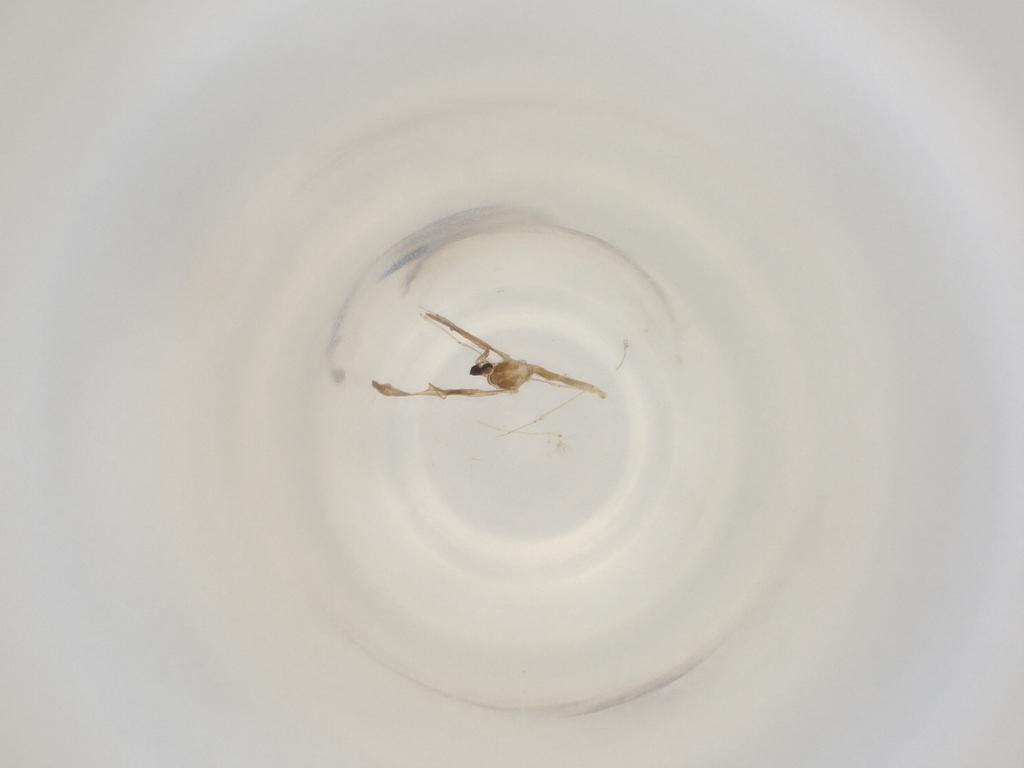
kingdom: Animalia
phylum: Arthropoda
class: Insecta
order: Diptera
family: Cecidomyiidae
